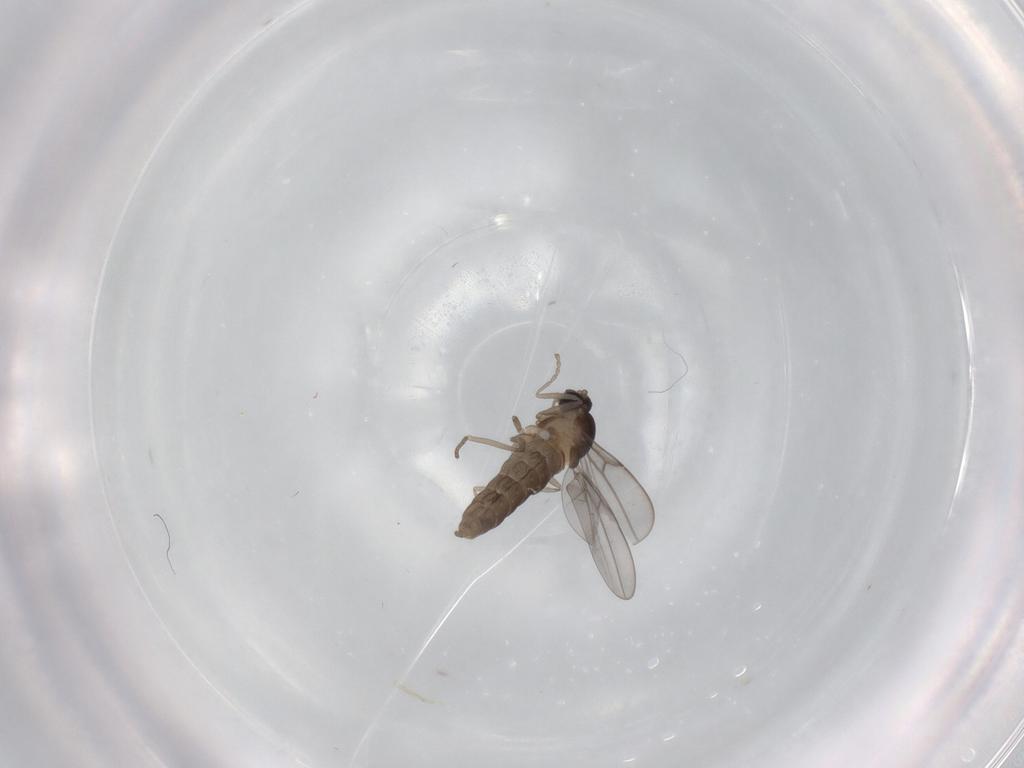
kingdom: Animalia
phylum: Arthropoda
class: Insecta
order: Diptera
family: Cecidomyiidae
